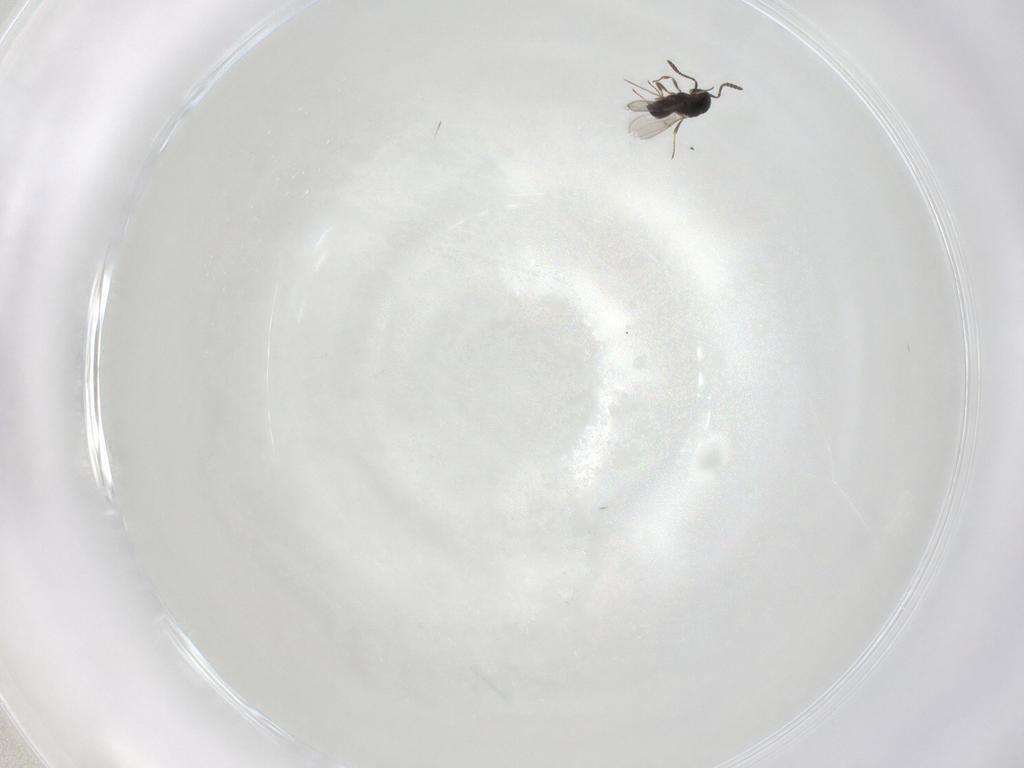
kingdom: Animalia
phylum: Arthropoda
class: Insecta
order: Hymenoptera
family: Scelionidae
